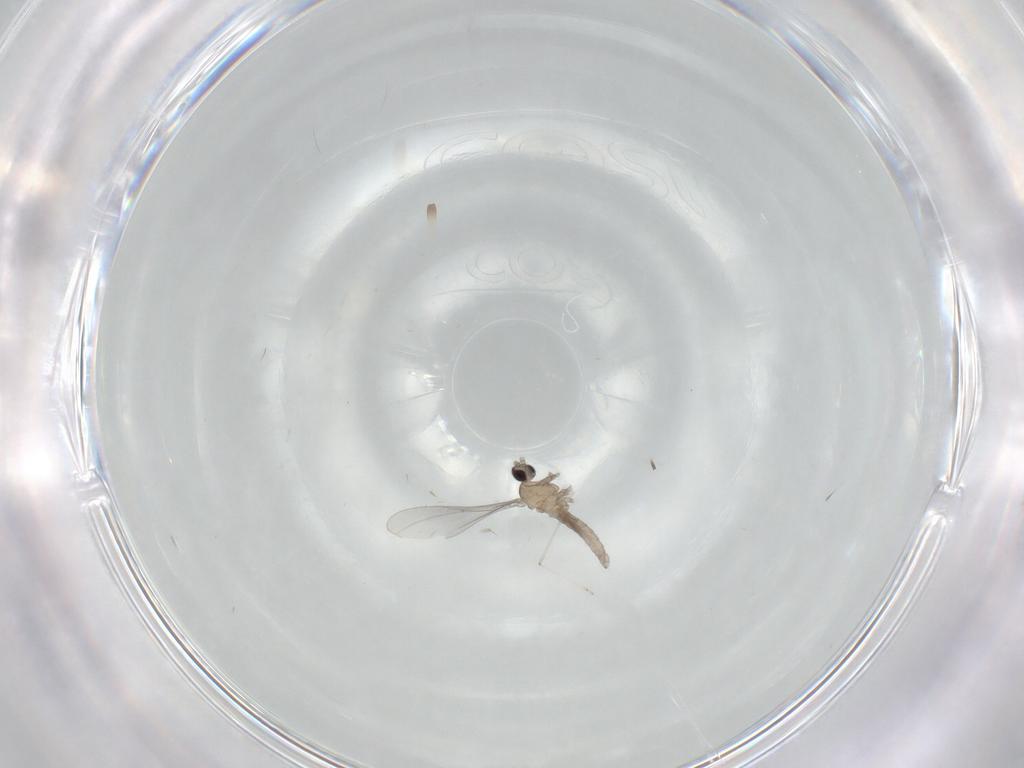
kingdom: Animalia
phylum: Arthropoda
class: Insecta
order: Diptera
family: Cecidomyiidae
